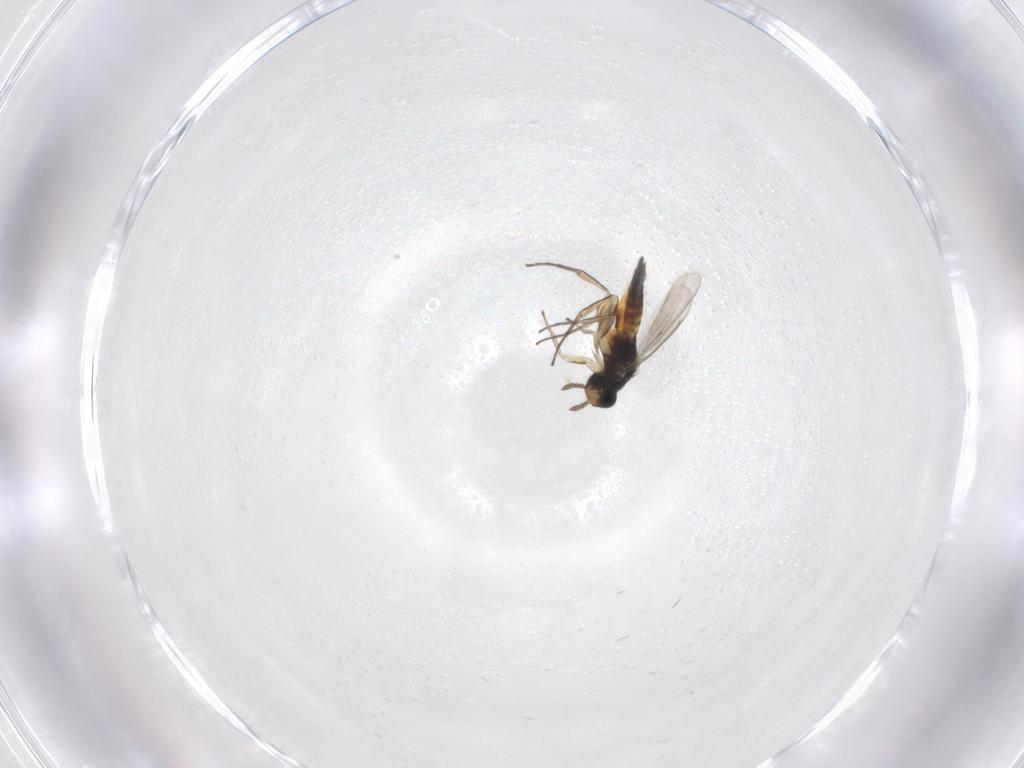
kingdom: Animalia
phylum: Arthropoda
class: Insecta
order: Hymenoptera
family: Eulophidae
